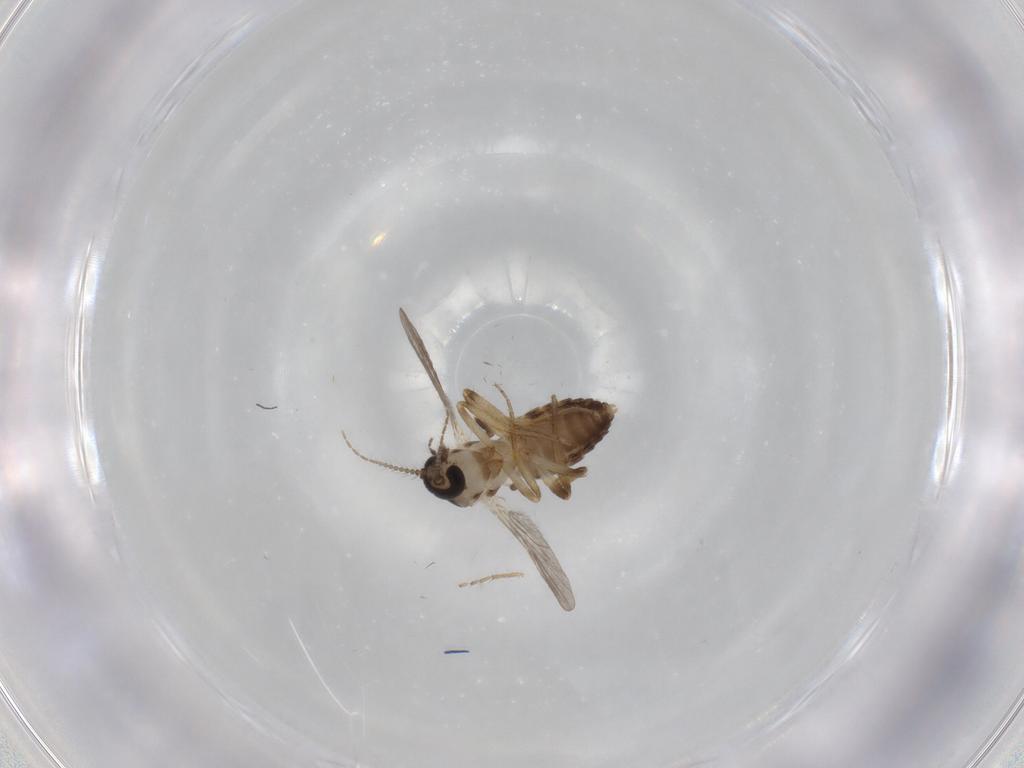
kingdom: Animalia
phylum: Arthropoda
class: Insecta
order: Diptera
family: Ceratopogonidae
